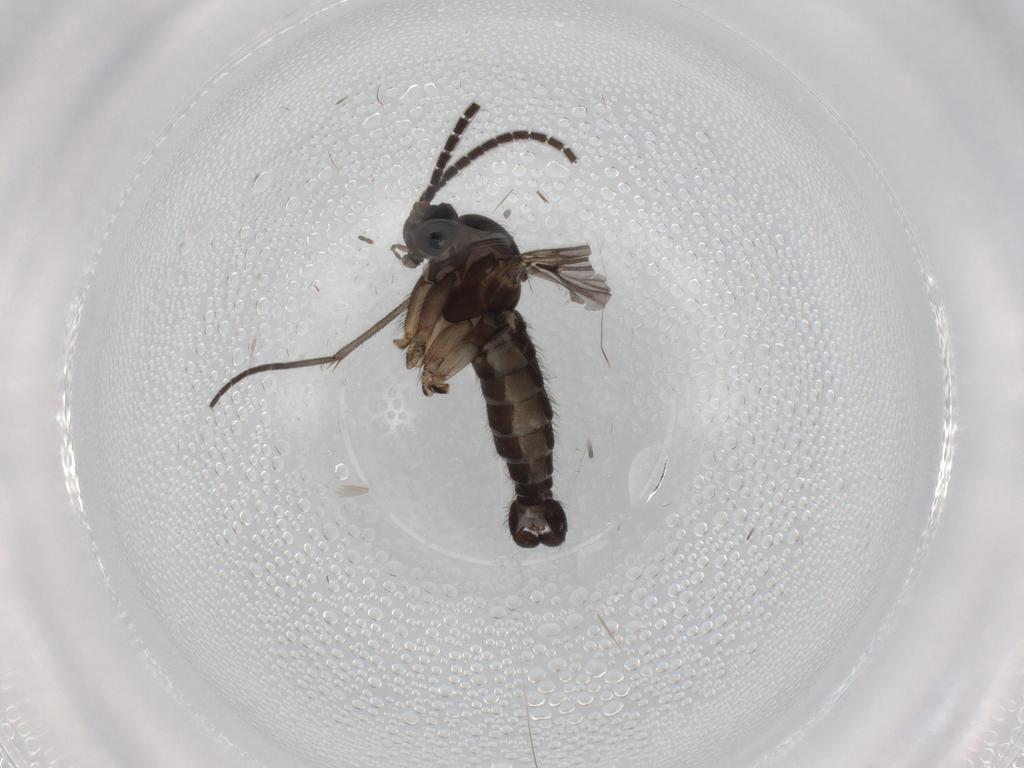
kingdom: Animalia
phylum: Arthropoda
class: Insecta
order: Diptera
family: Sciaridae
